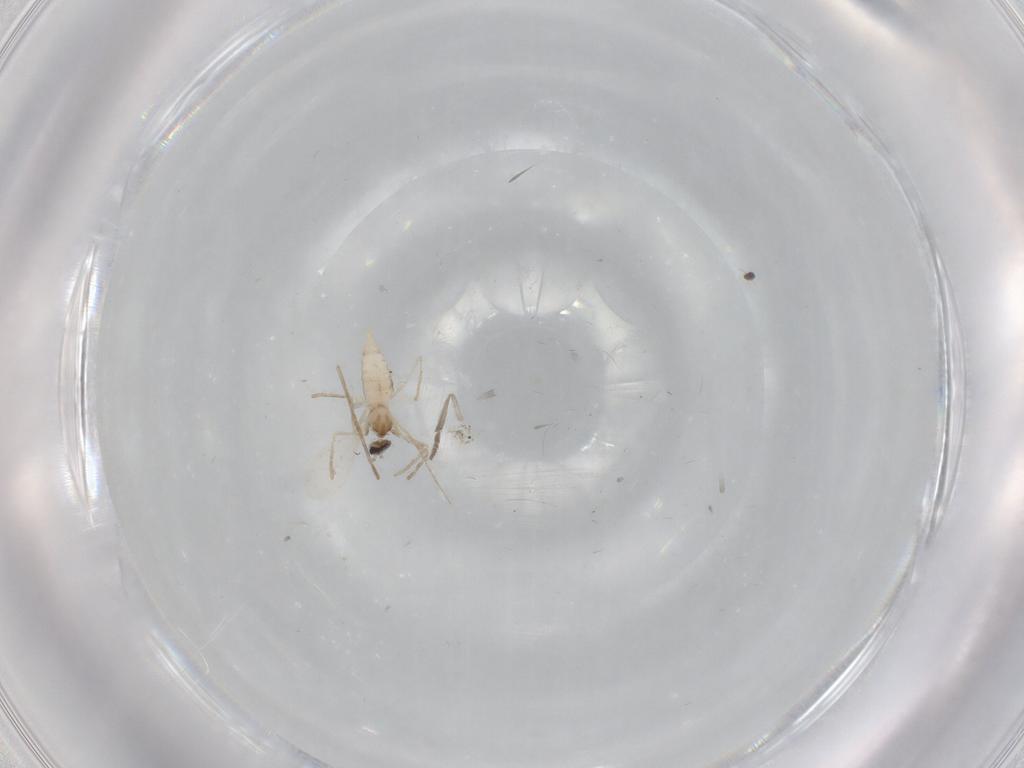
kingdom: Animalia
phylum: Arthropoda
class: Insecta
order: Diptera
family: Cecidomyiidae
